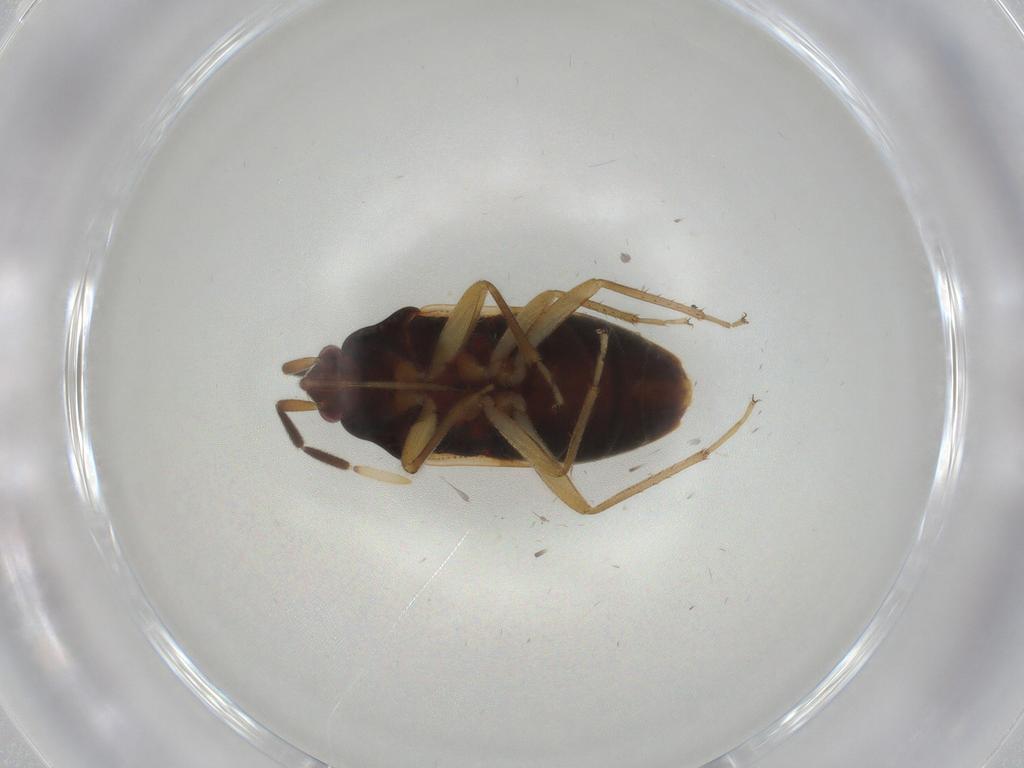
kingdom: Animalia
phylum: Arthropoda
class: Insecta
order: Hemiptera
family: Rhyparochromidae
